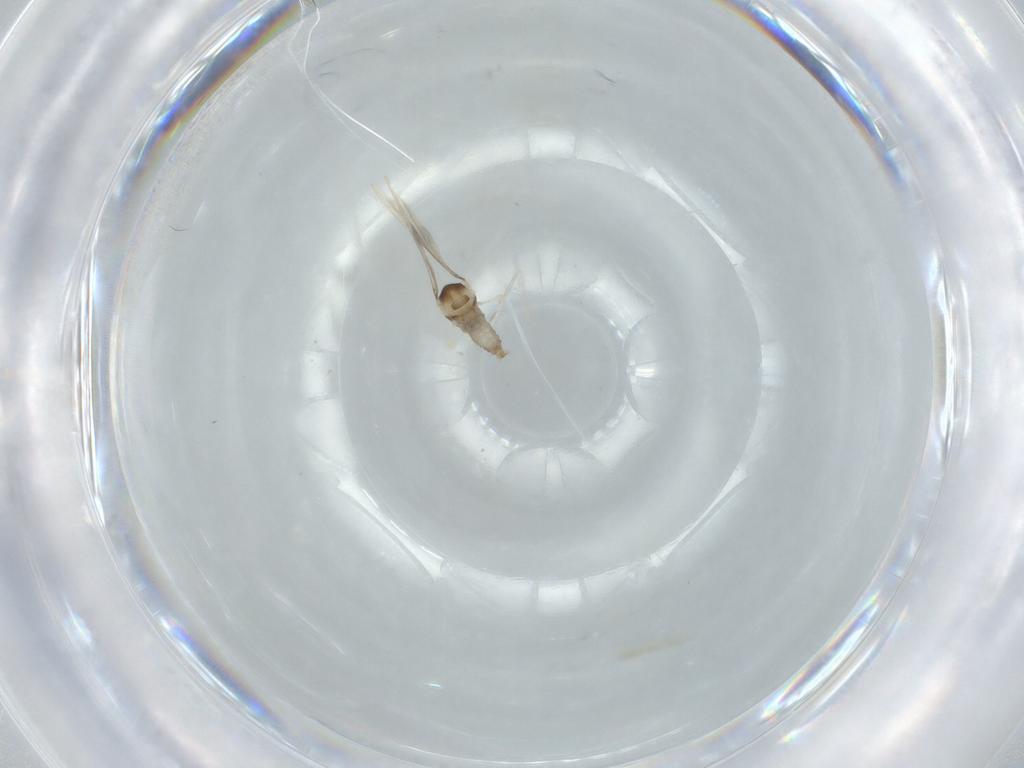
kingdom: Animalia
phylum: Arthropoda
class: Insecta
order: Diptera
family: Cecidomyiidae
